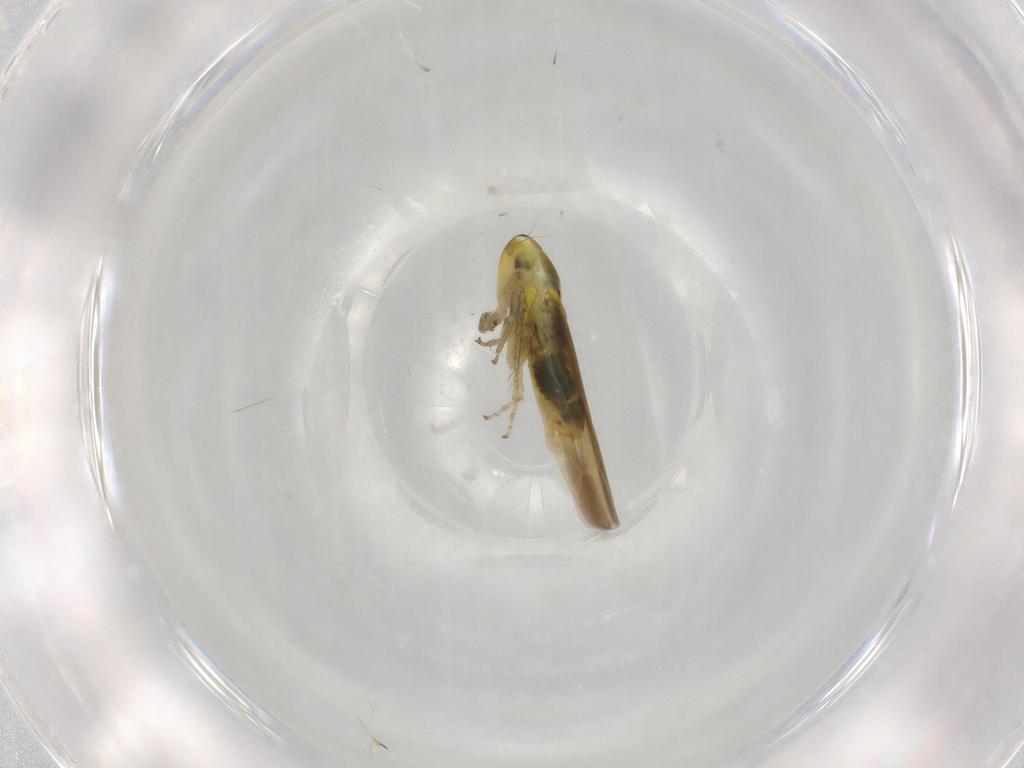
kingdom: Animalia
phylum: Arthropoda
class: Insecta
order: Hemiptera
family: Cicadellidae
